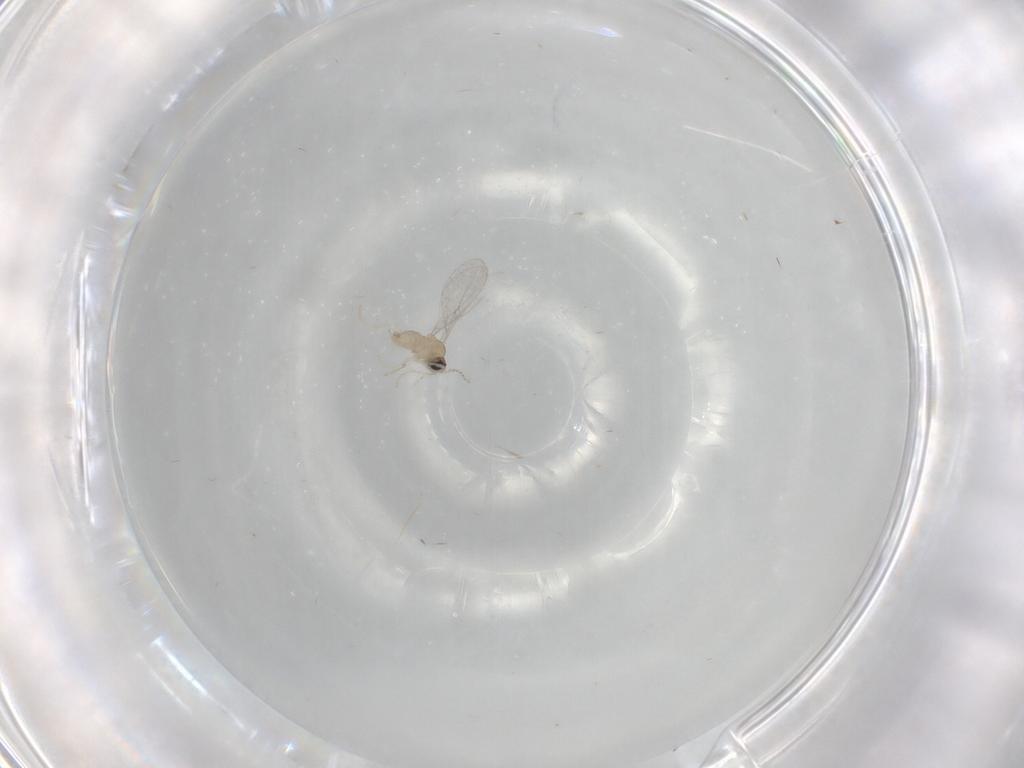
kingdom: Animalia
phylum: Arthropoda
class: Insecta
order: Diptera
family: Cecidomyiidae
